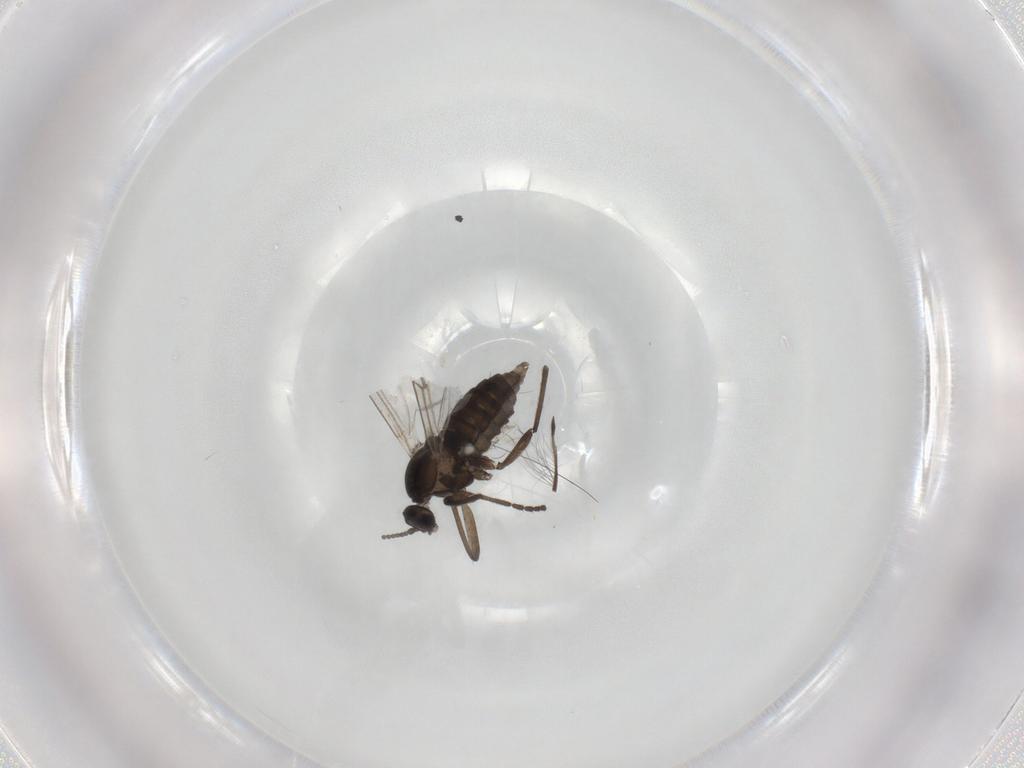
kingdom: Animalia
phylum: Arthropoda
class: Insecta
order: Diptera
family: Cecidomyiidae
